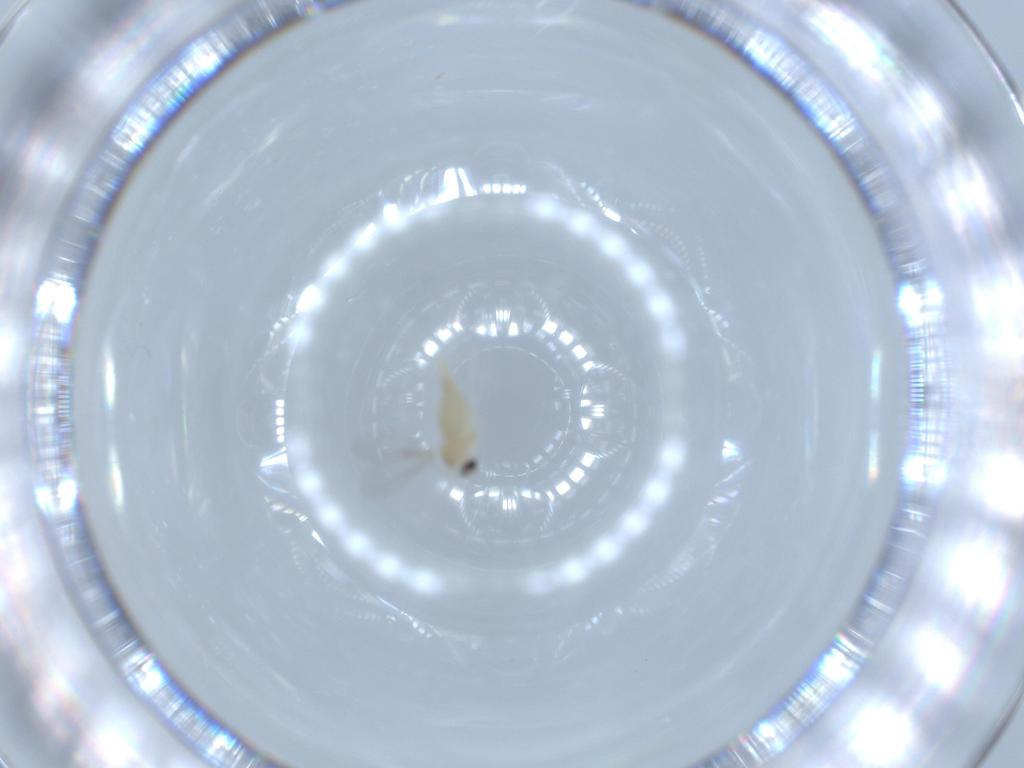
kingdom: Animalia
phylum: Arthropoda
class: Insecta
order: Diptera
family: Cecidomyiidae
